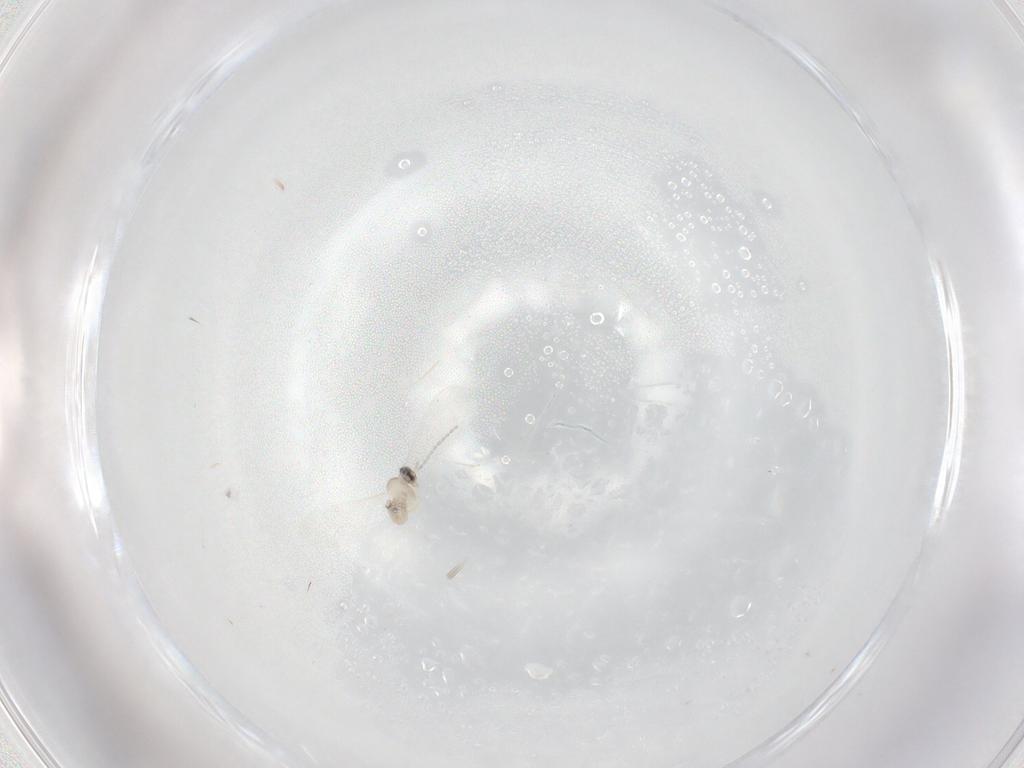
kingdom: Animalia
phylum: Arthropoda
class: Insecta
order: Diptera
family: Cecidomyiidae
